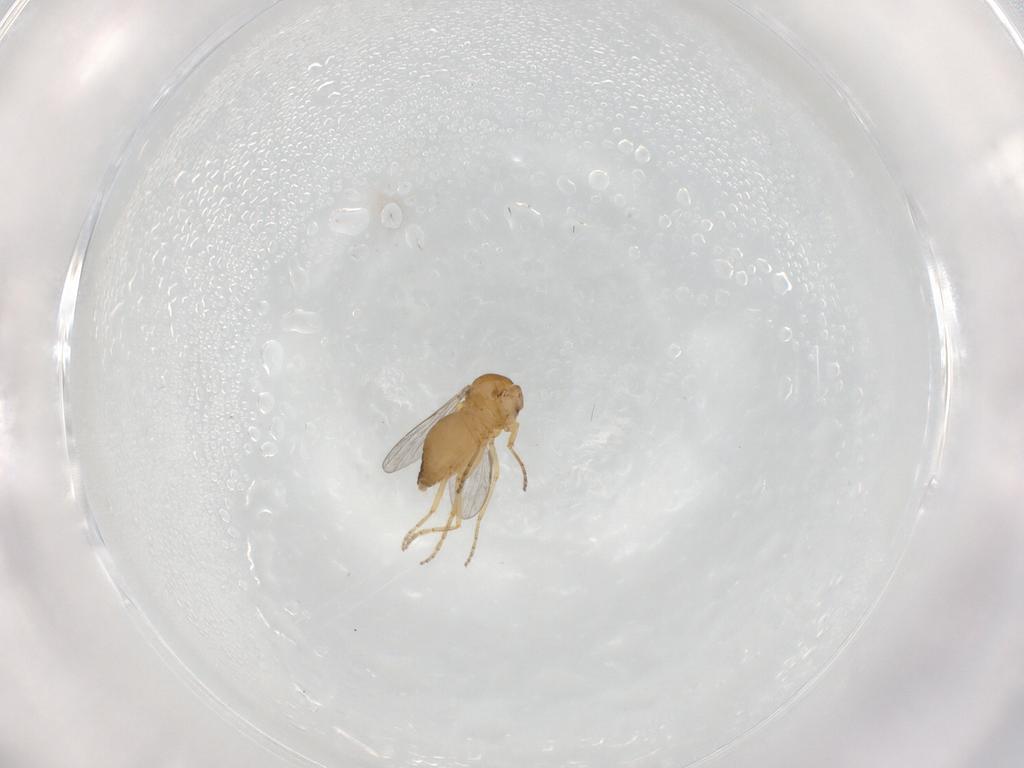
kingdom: Animalia
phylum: Arthropoda
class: Insecta
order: Diptera
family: Ceratopogonidae
